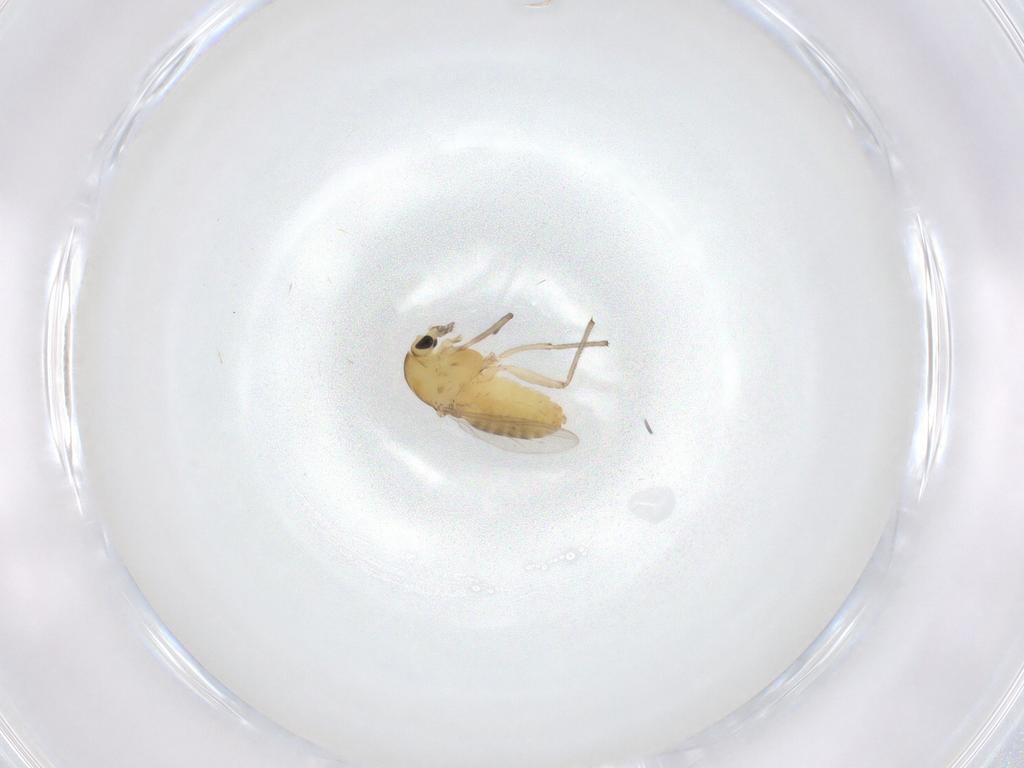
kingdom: Animalia
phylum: Arthropoda
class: Insecta
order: Diptera
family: Chironomidae
